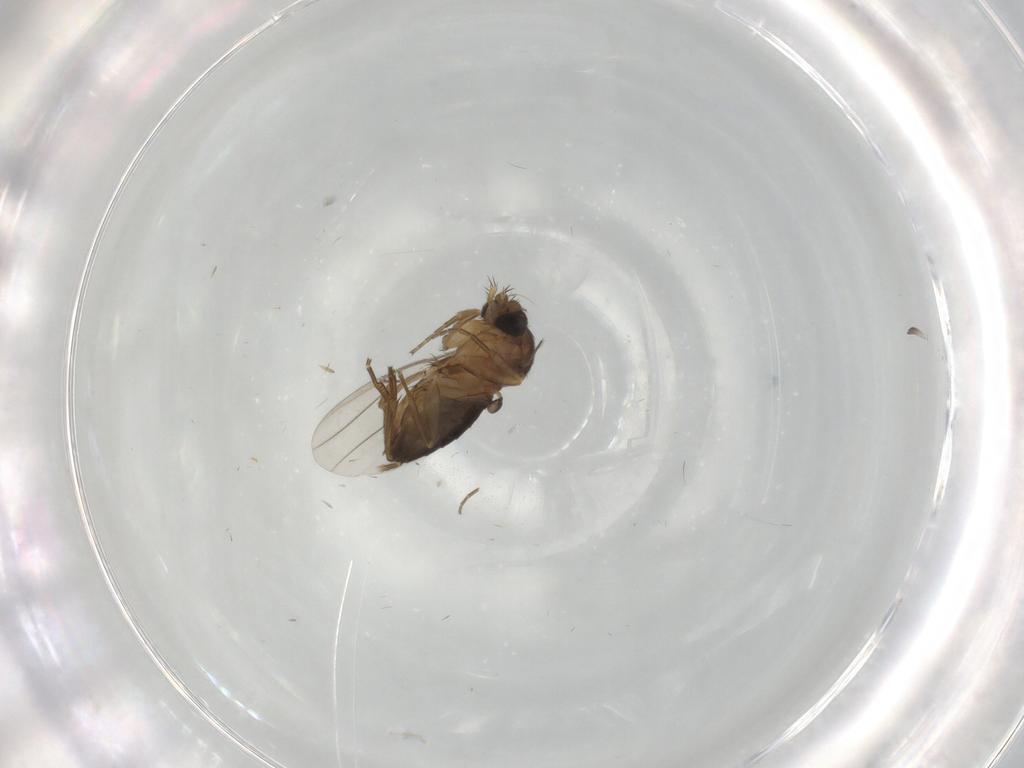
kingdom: Animalia
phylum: Arthropoda
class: Insecta
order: Diptera
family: Phoridae
